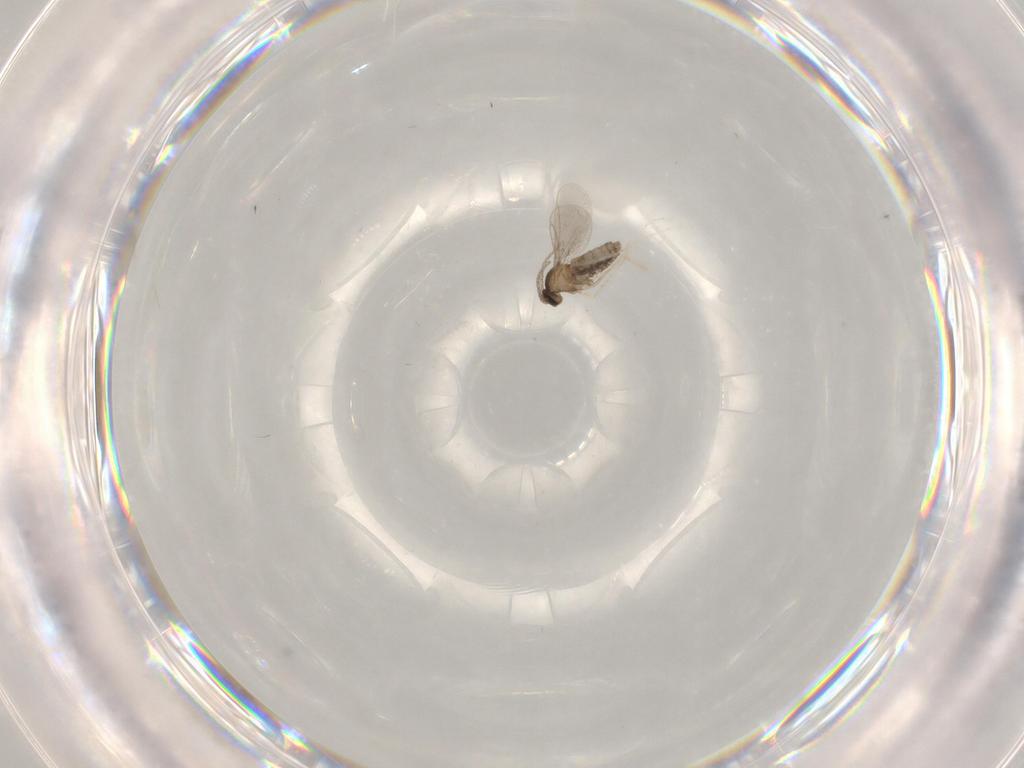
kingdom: Animalia
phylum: Arthropoda
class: Insecta
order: Diptera
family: Cecidomyiidae
